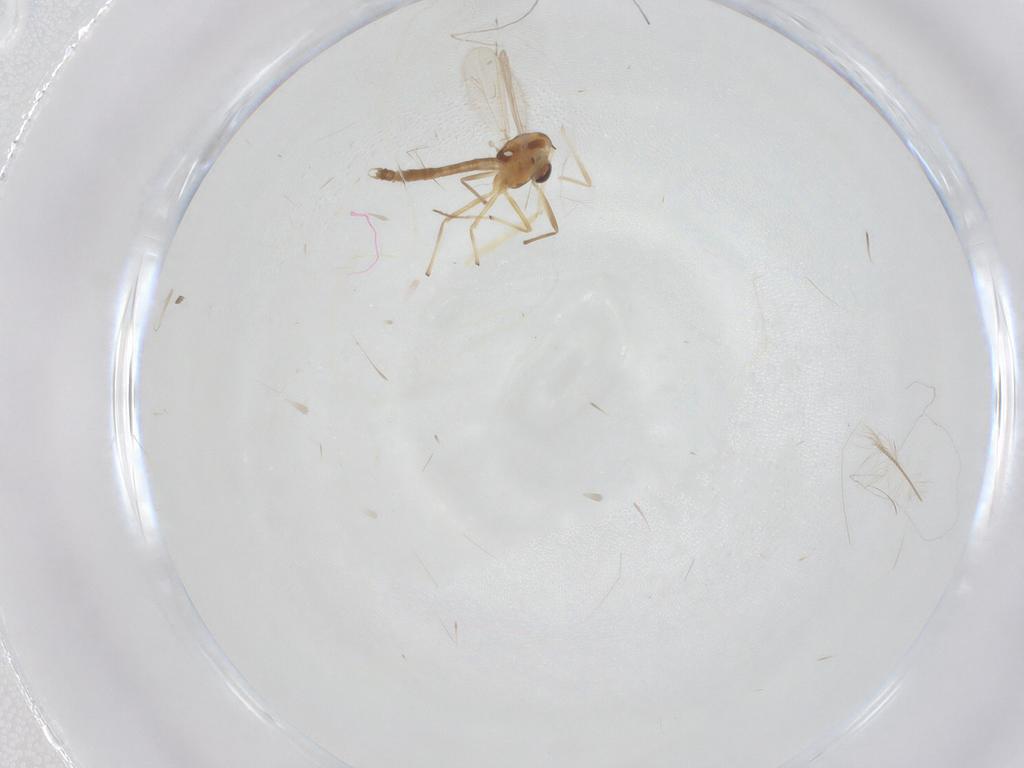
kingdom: Animalia
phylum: Arthropoda
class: Insecta
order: Diptera
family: Chironomidae
